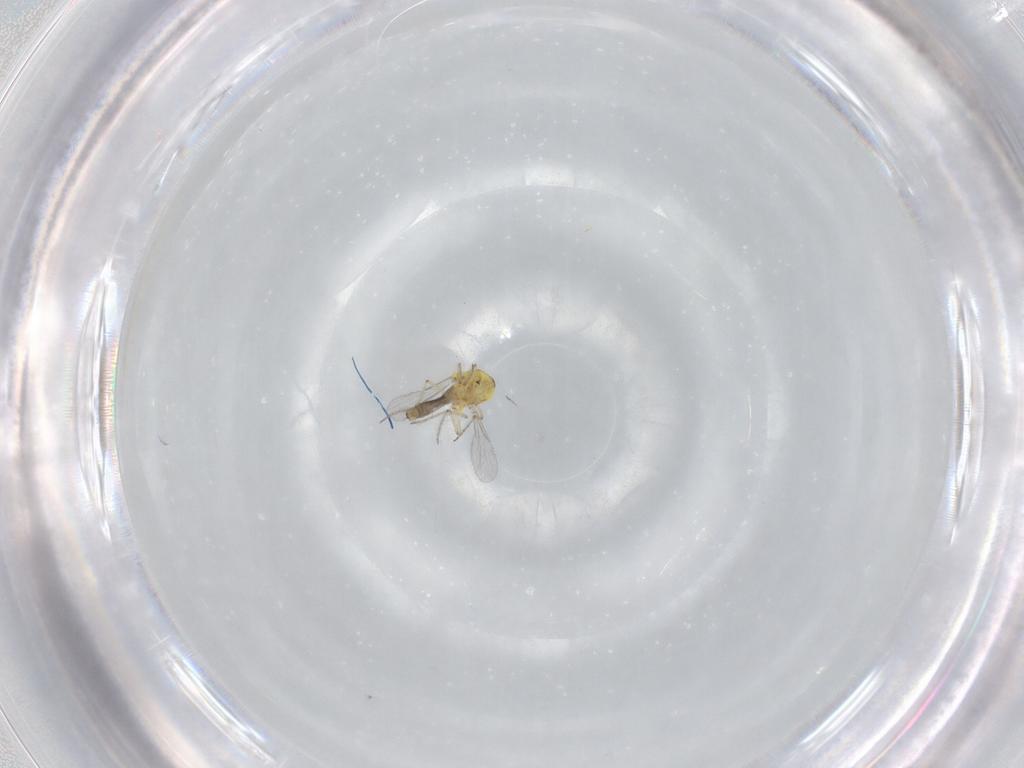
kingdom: Animalia
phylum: Arthropoda
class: Insecta
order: Diptera
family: Ceratopogonidae
